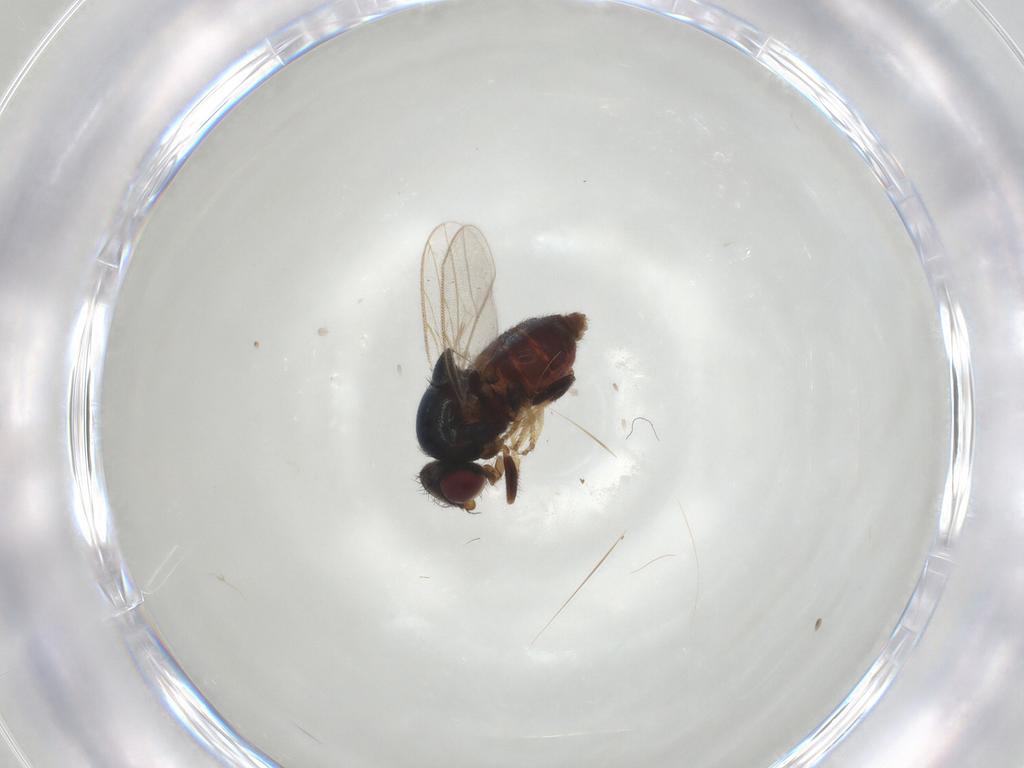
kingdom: Animalia
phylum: Arthropoda
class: Insecta
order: Diptera
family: Chloropidae
